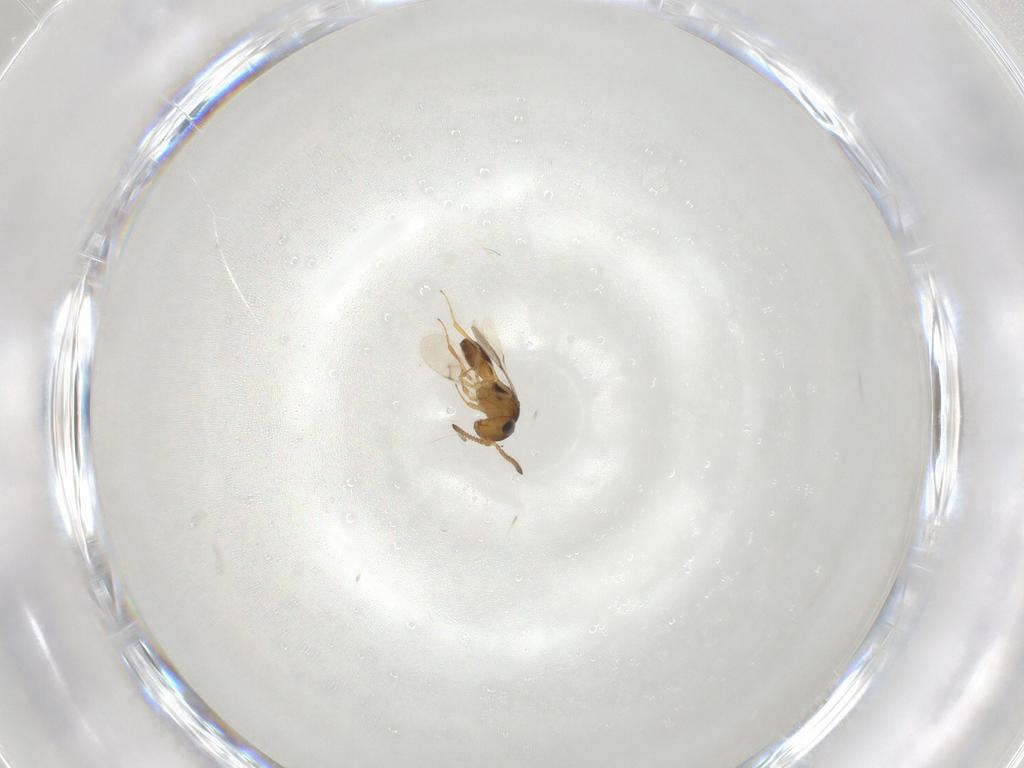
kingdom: Animalia
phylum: Arthropoda
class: Insecta
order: Hymenoptera
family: Scelionidae
